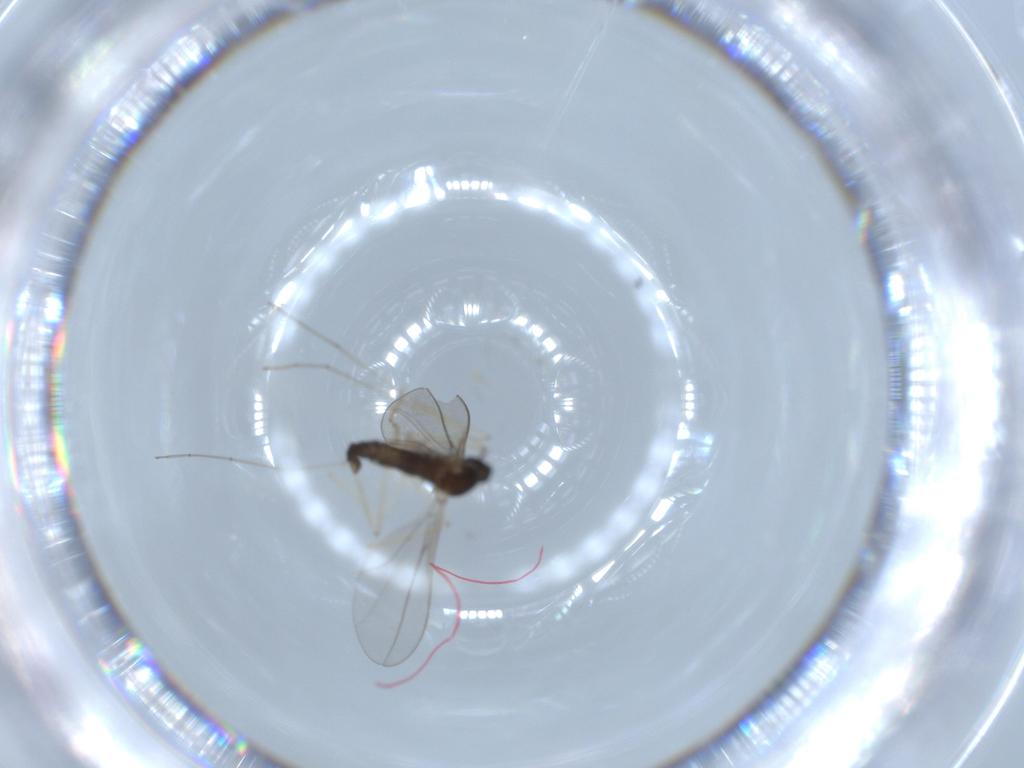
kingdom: Animalia
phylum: Arthropoda
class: Insecta
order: Diptera
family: Cecidomyiidae
